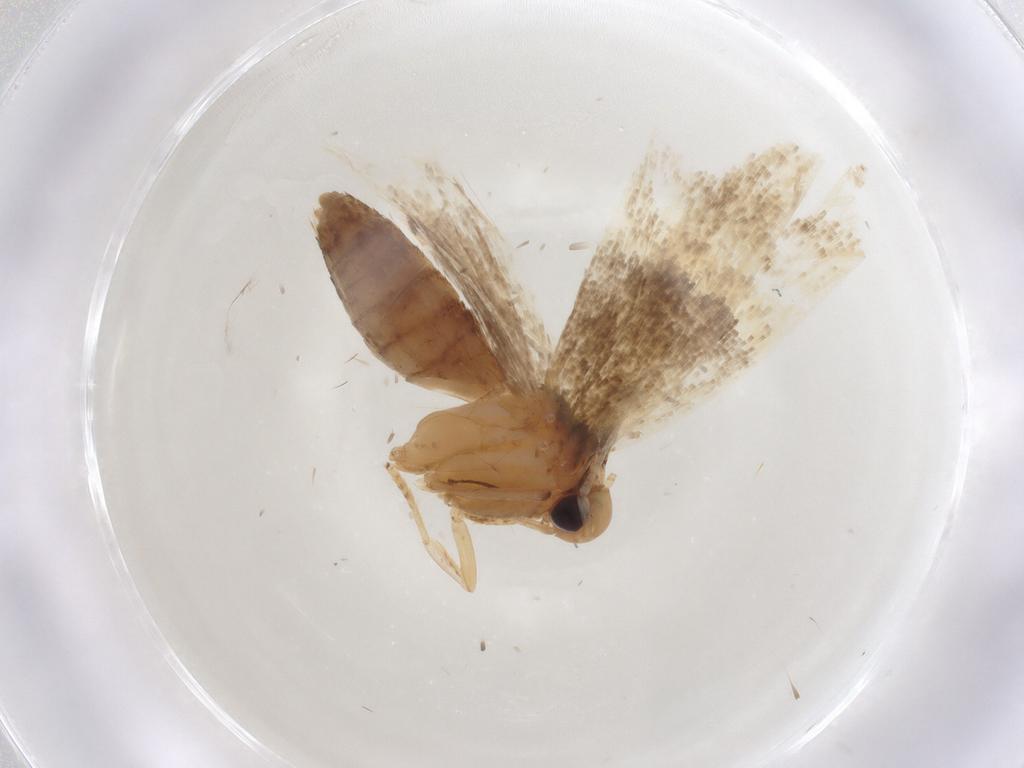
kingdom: Animalia
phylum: Arthropoda
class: Insecta
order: Lepidoptera
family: Lecithoceridae
